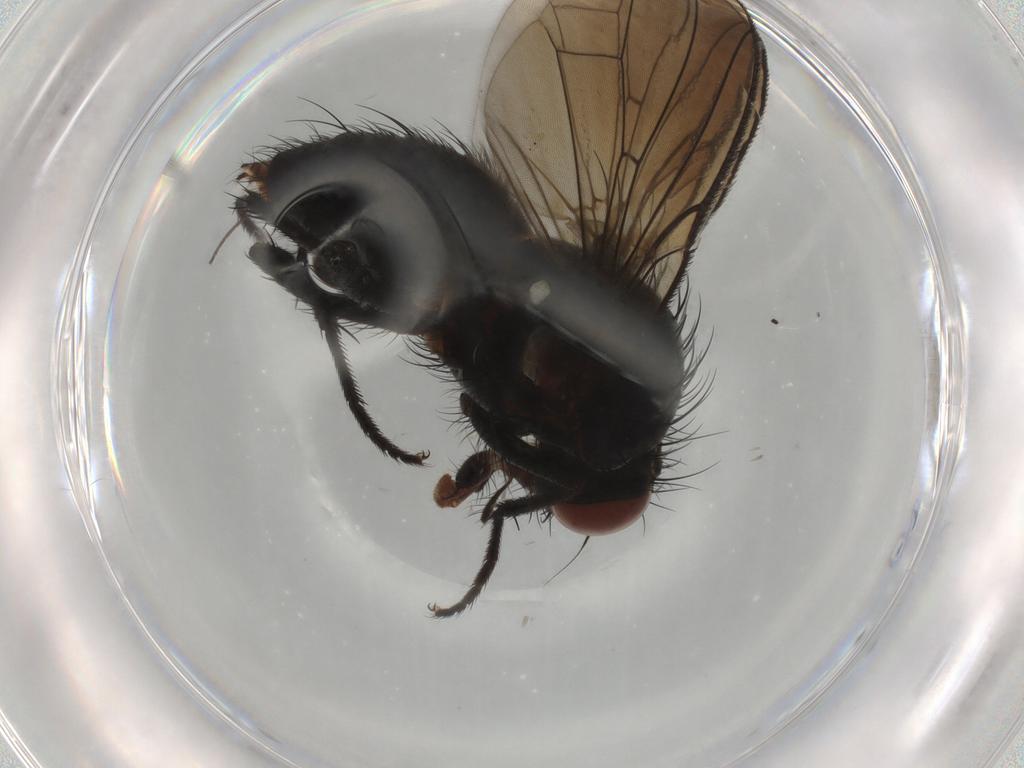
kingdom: Animalia
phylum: Arthropoda
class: Insecta
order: Diptera
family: Anthomyiidae
